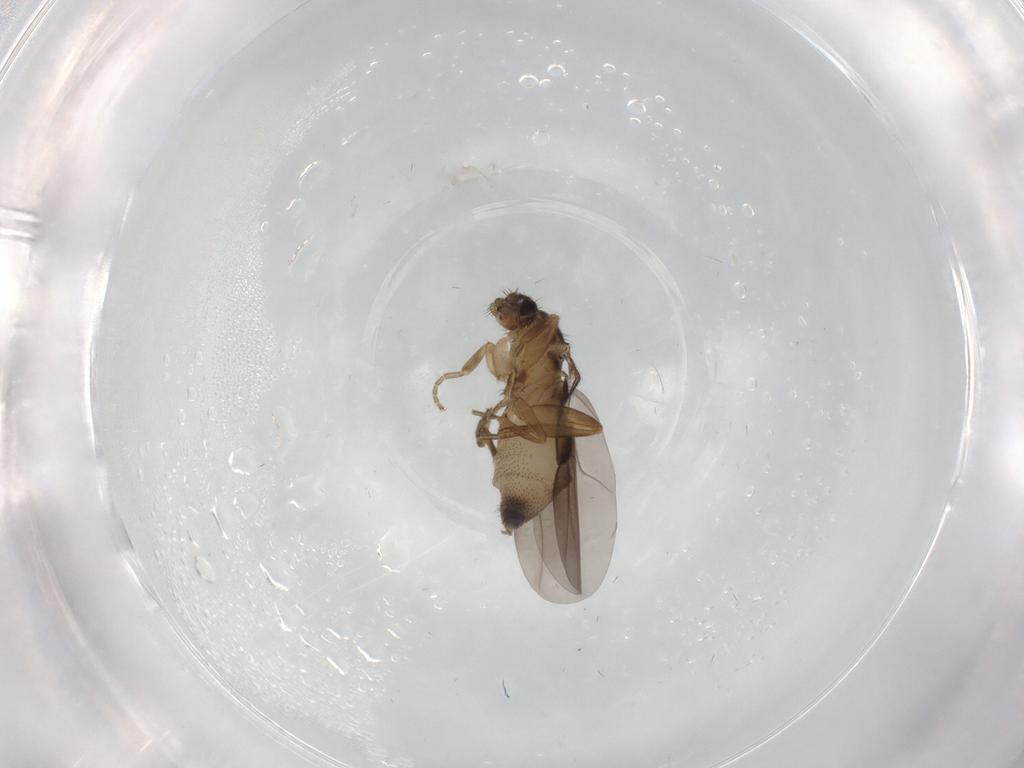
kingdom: Animalia
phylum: Arthropoda
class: Insecta
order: Diptera
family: Phoridae
